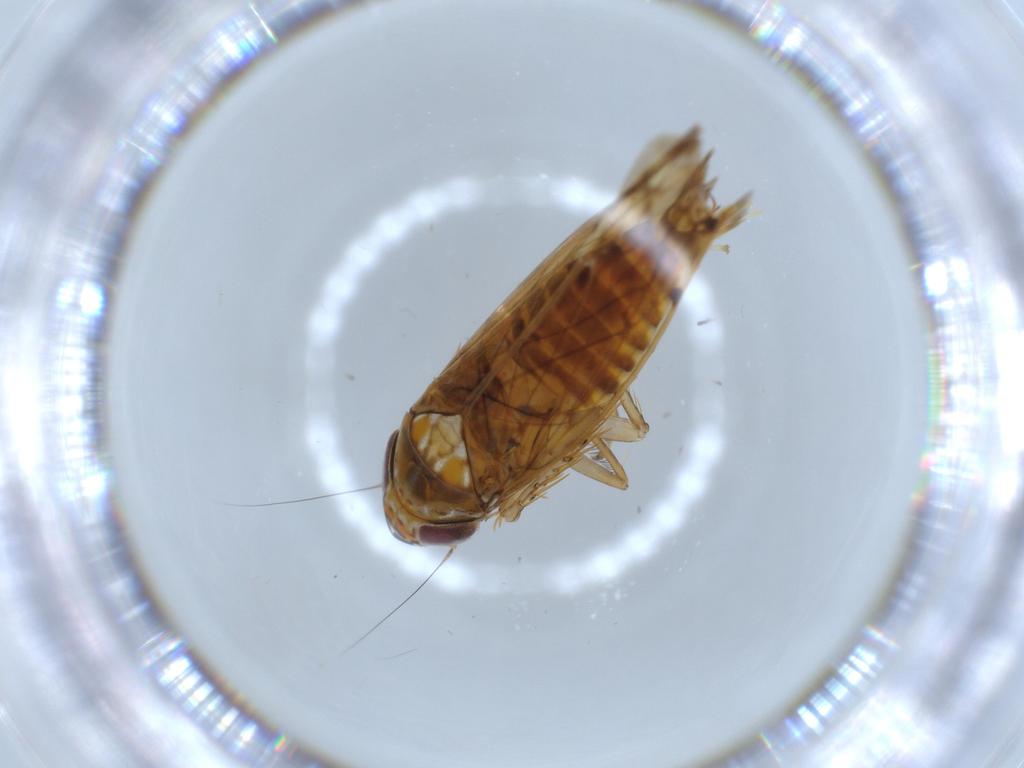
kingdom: Animalia
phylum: Arthropoda
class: Insecta
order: Hemiptera
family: Cicadellidae
